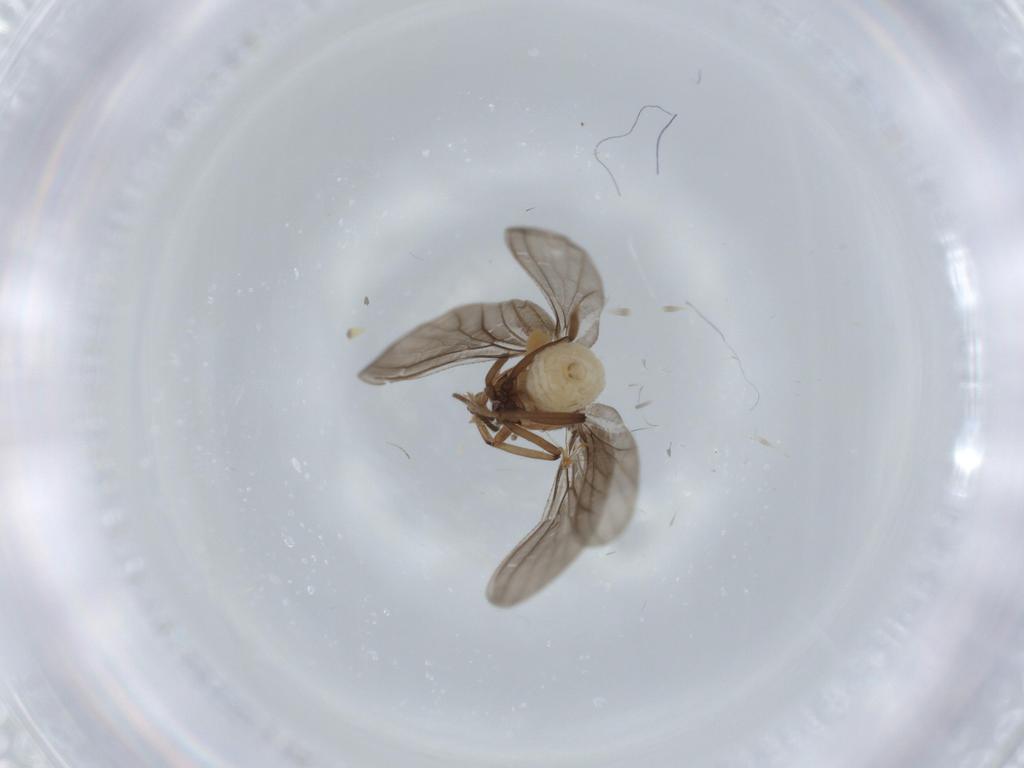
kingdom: Animalia
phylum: Arthropoda
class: Insecta
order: Neuroptera
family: Coniopterygidae
